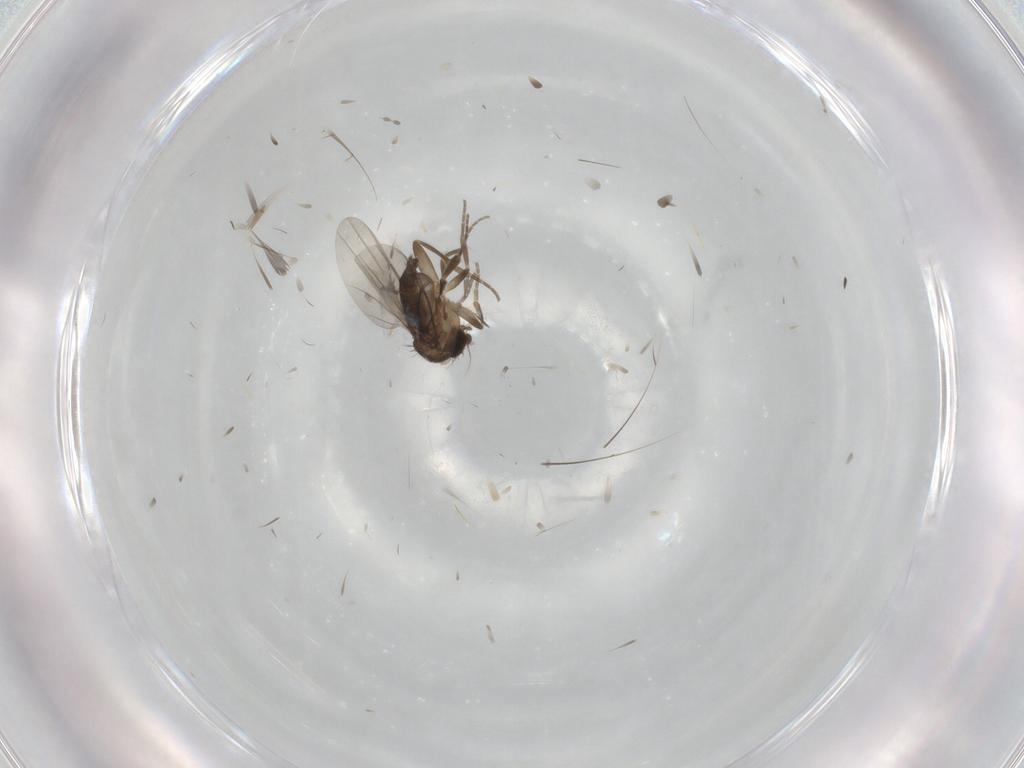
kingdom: Animalia
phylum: Arthropoda
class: Insecta
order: Diptera
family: Phoridae
